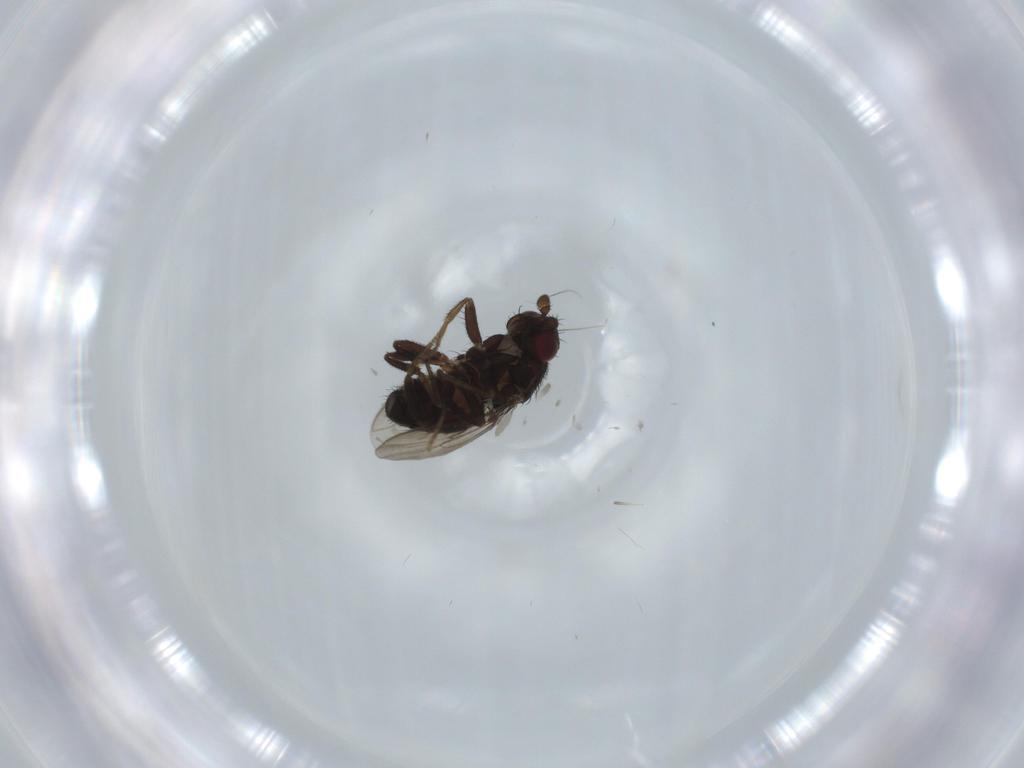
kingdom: Animalia
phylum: Arthropoda
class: Insecta
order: Diptera
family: Sphaeroceridae
